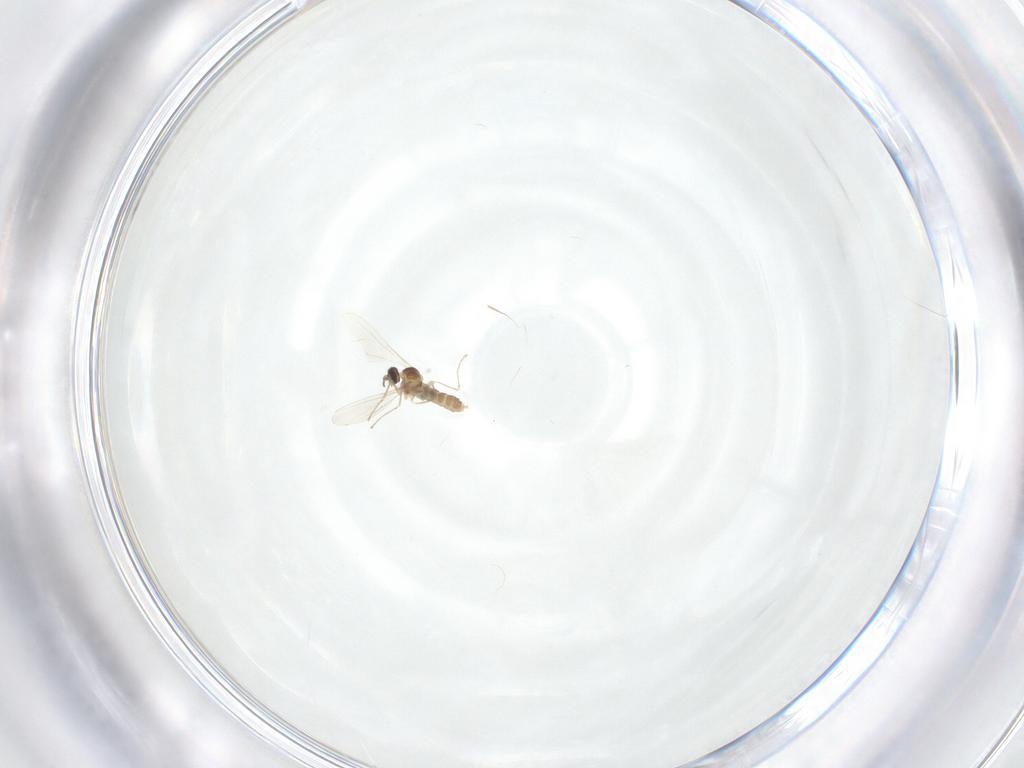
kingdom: Animalia
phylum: Arthropoda
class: Insecta
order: Diptera
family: Cecidomyiidae
